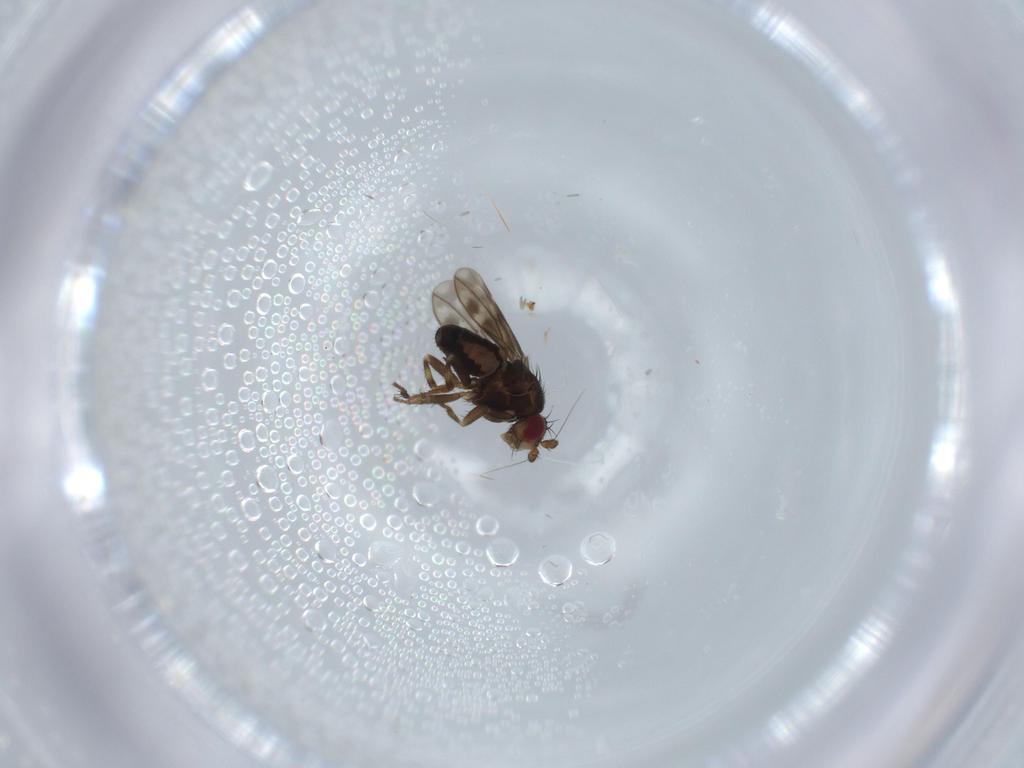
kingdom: Animalia
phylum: Arthropoda
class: Insecta
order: Diptera
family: Sphaeroceridae
